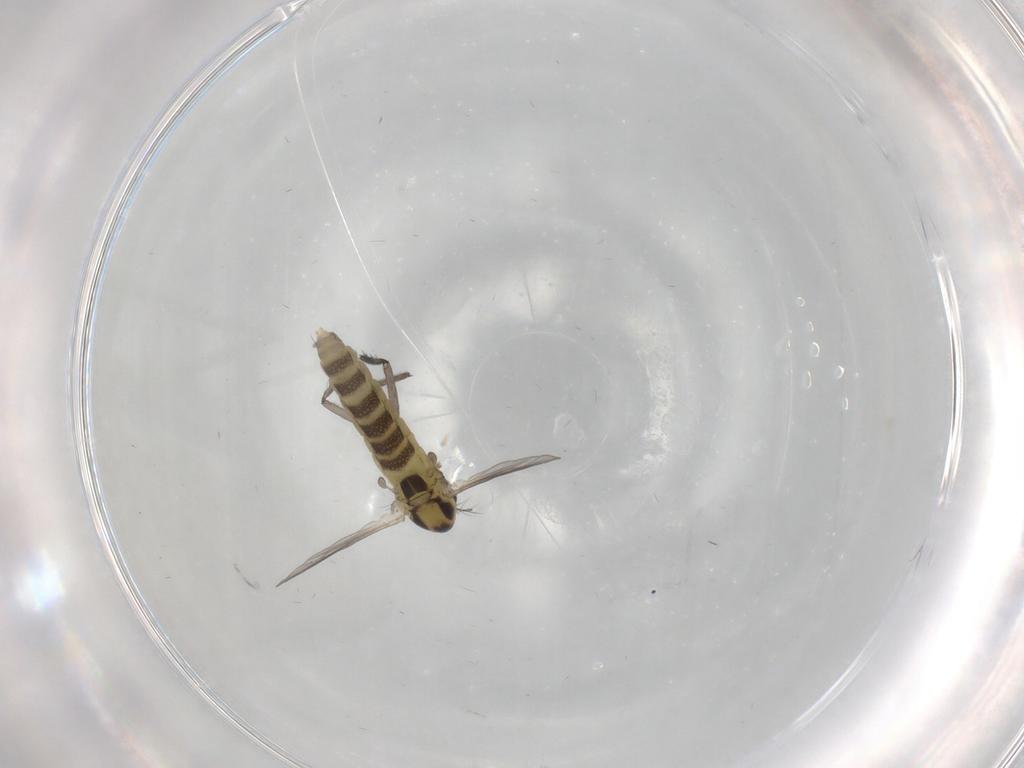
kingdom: Animalia
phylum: Arthropoda
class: Insecta
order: Diptera
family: Chironomidae
